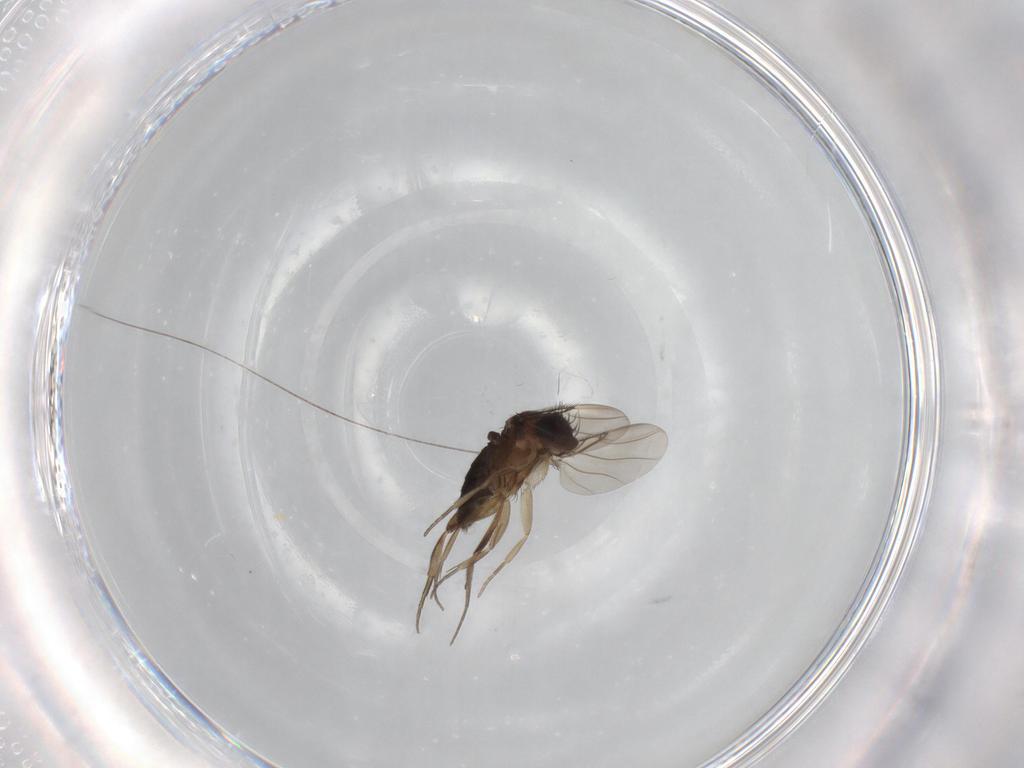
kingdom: Animalia
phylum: Arthropoda
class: Insecta
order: Diptera
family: Phoridae
